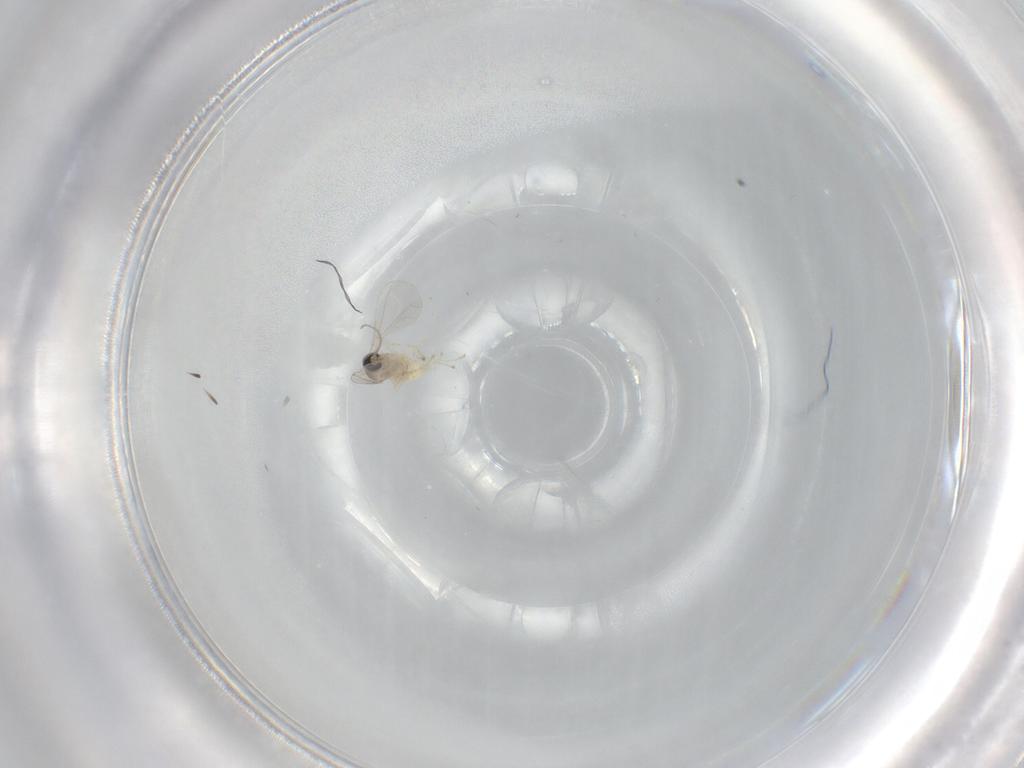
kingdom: Animalia
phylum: Arthropoda
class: Insecta
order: Diptera
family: Cecidomyiidae
